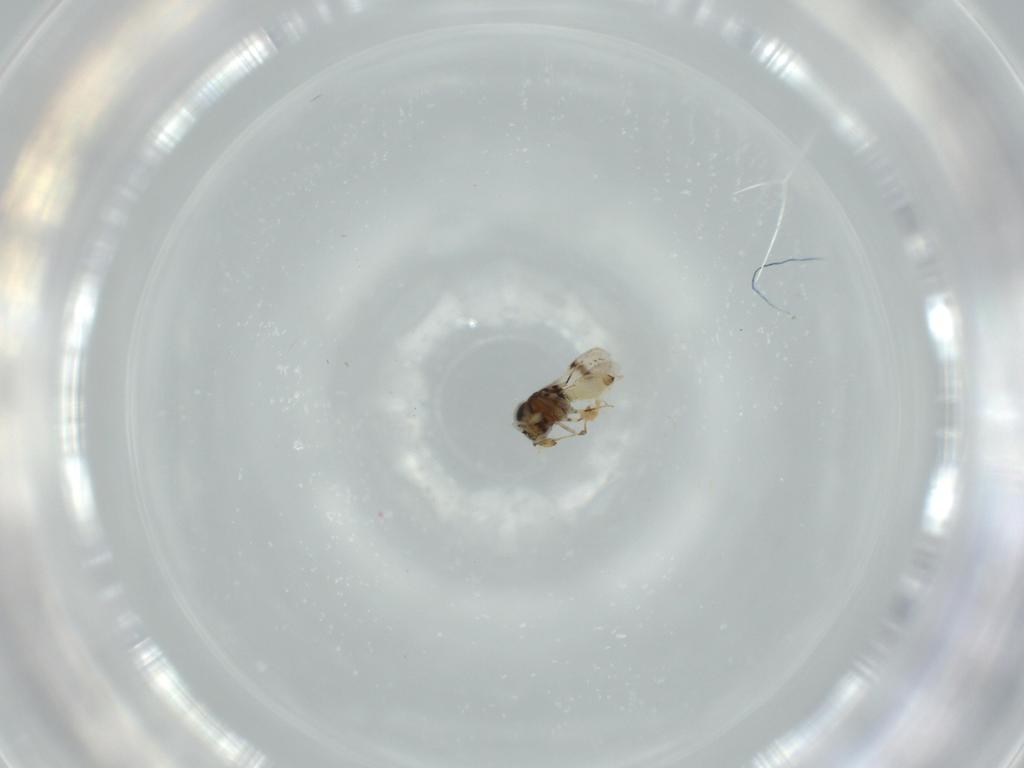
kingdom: Animalia
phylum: Arthropoda
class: Insecta
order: Hymenoptera
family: Scelionidae
